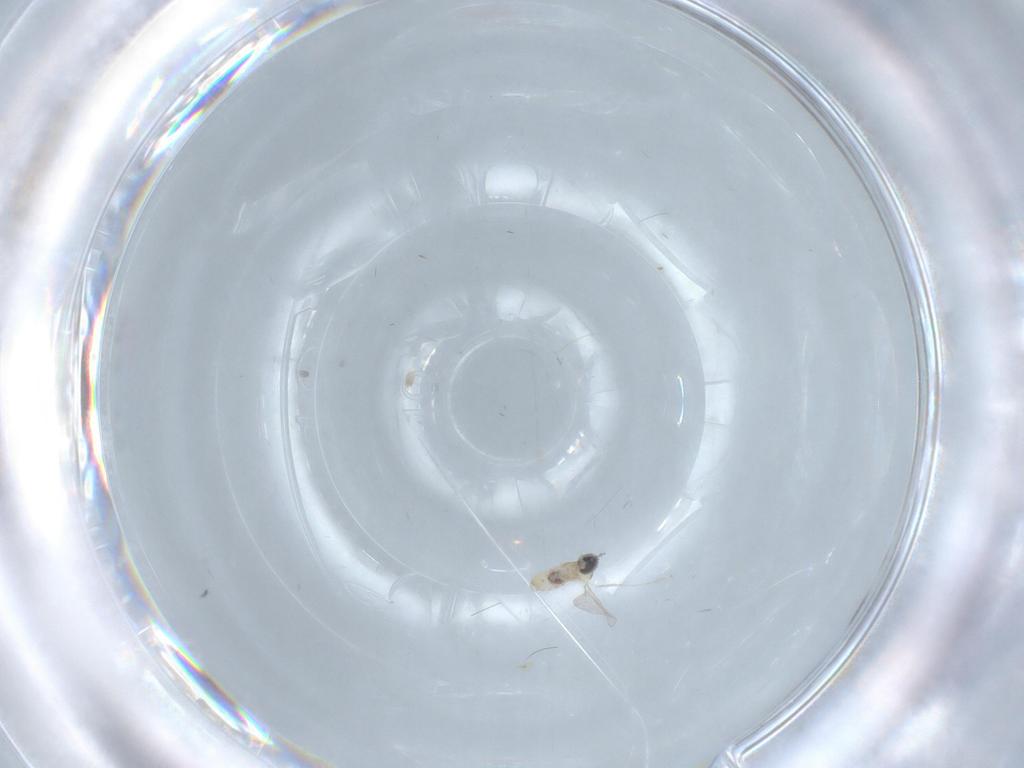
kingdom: Animalia
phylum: Arthropoda
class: Insecta
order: Diptera
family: Cecidomyiidae
